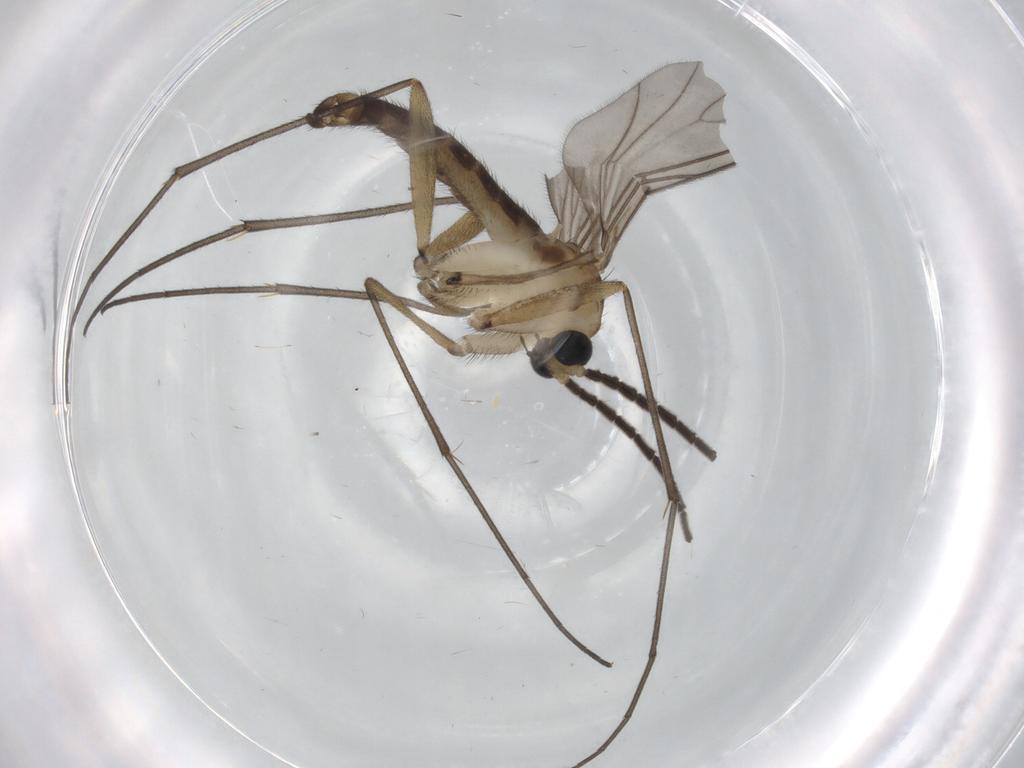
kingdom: Animalia
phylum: Arthropoda
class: Insecta
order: Diptera
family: Sciaridae
